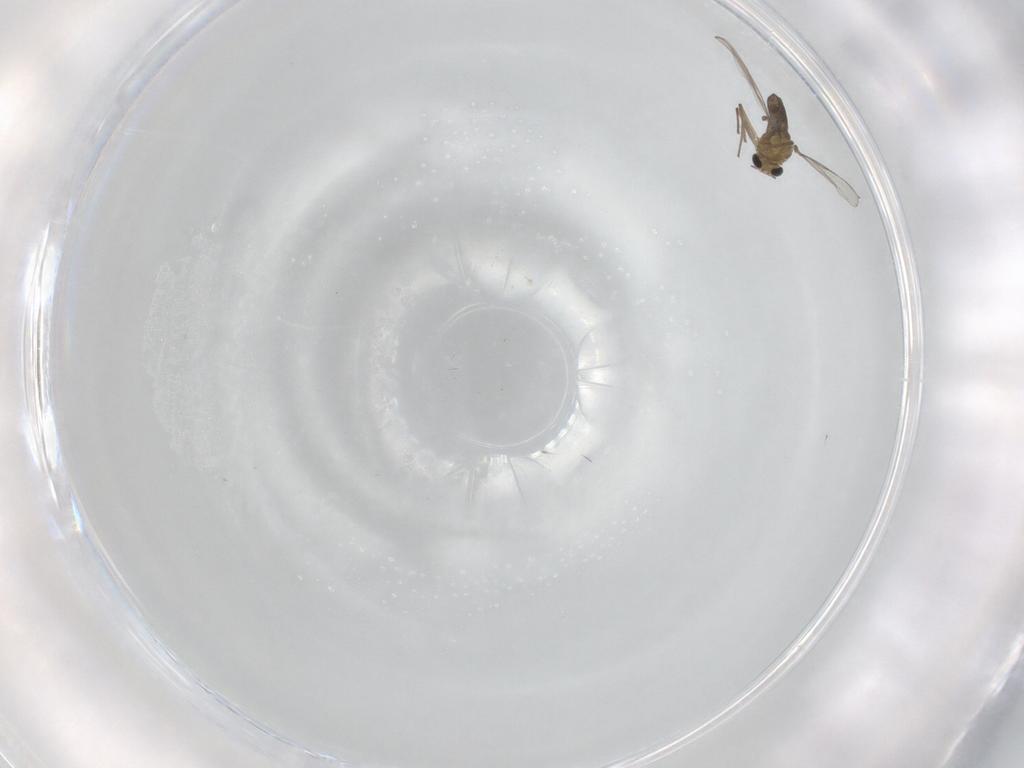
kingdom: Animalia
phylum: Arthropoda
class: Insecta
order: Diptera
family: Chironomidae
